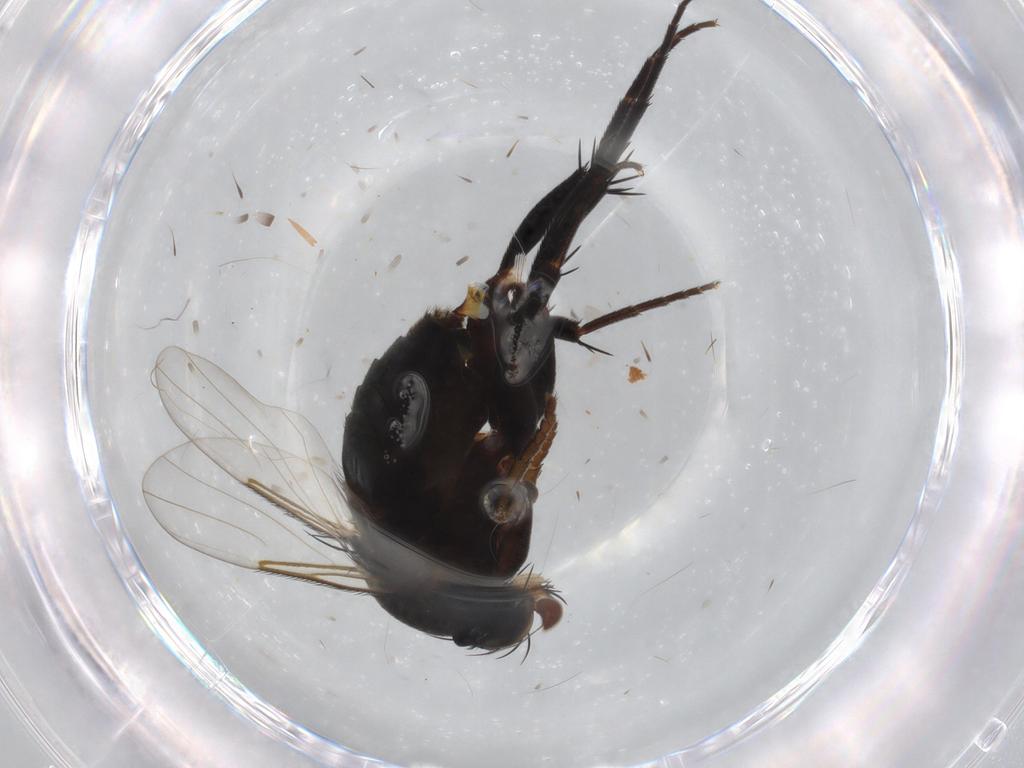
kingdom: Animalia
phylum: Arthropoda
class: Insecta
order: Diptera
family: Phoridae
